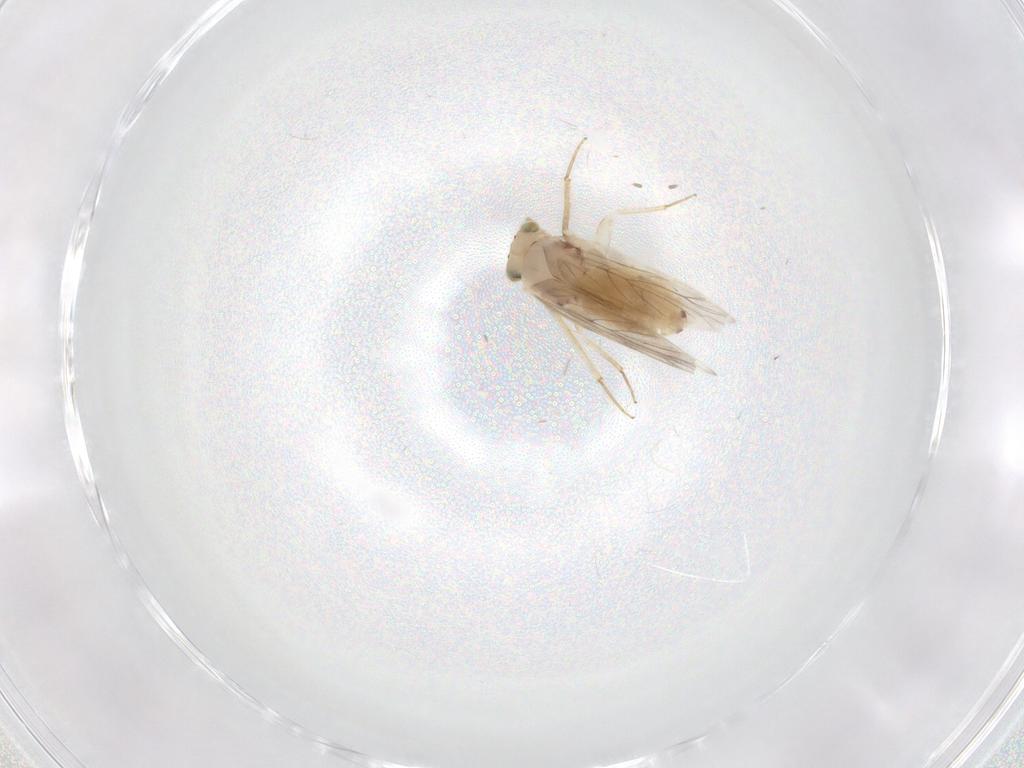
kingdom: Animalia
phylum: Arthropoda
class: Insecta
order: Psocodea
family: Lepidopsocidae
